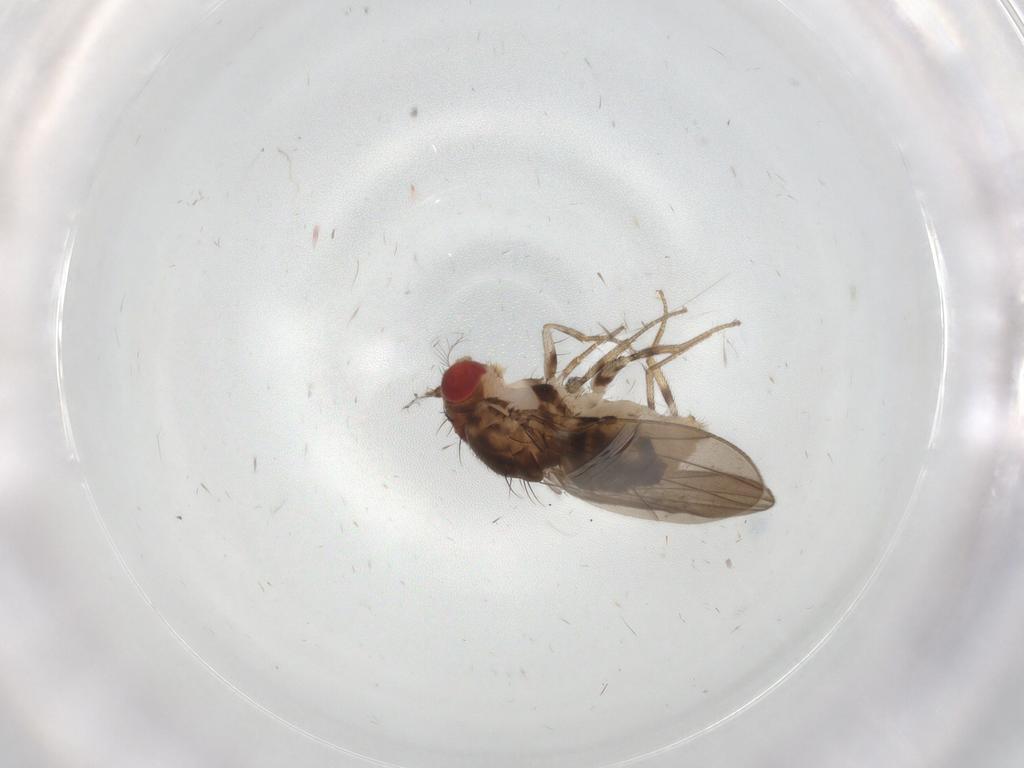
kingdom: Animalia
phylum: Arthropoda
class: Insecta
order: Diptera
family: Drosophilidae
